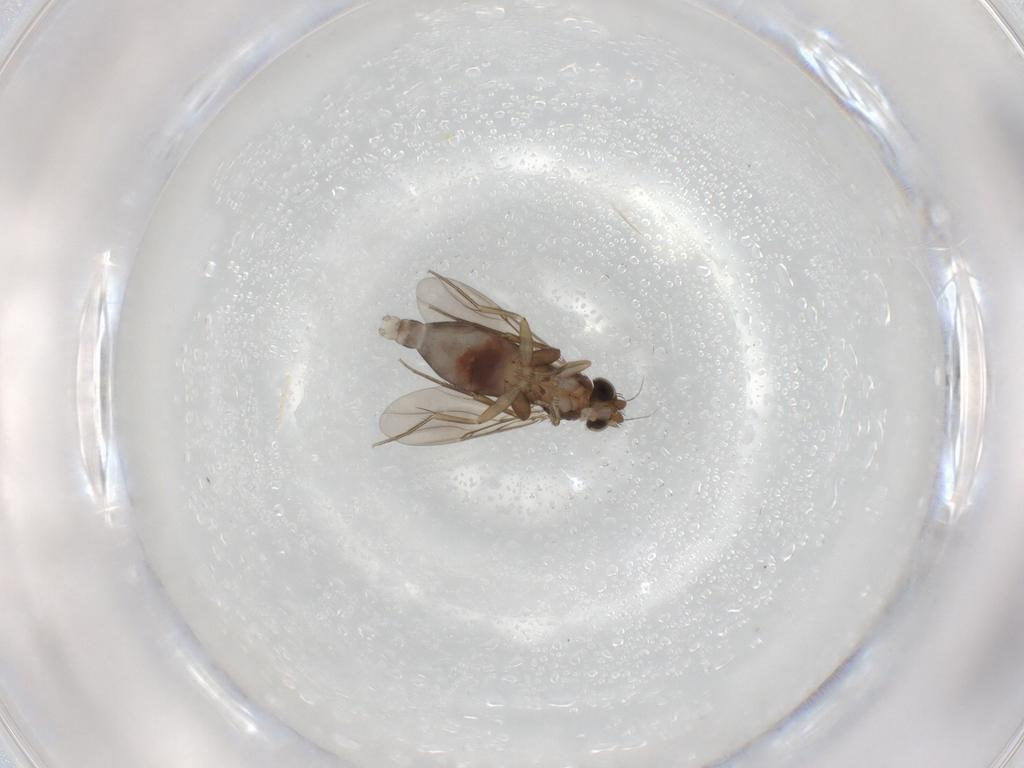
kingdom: Animalia
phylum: Arthropoda
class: Insecta
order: Diptera
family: Phoridae
